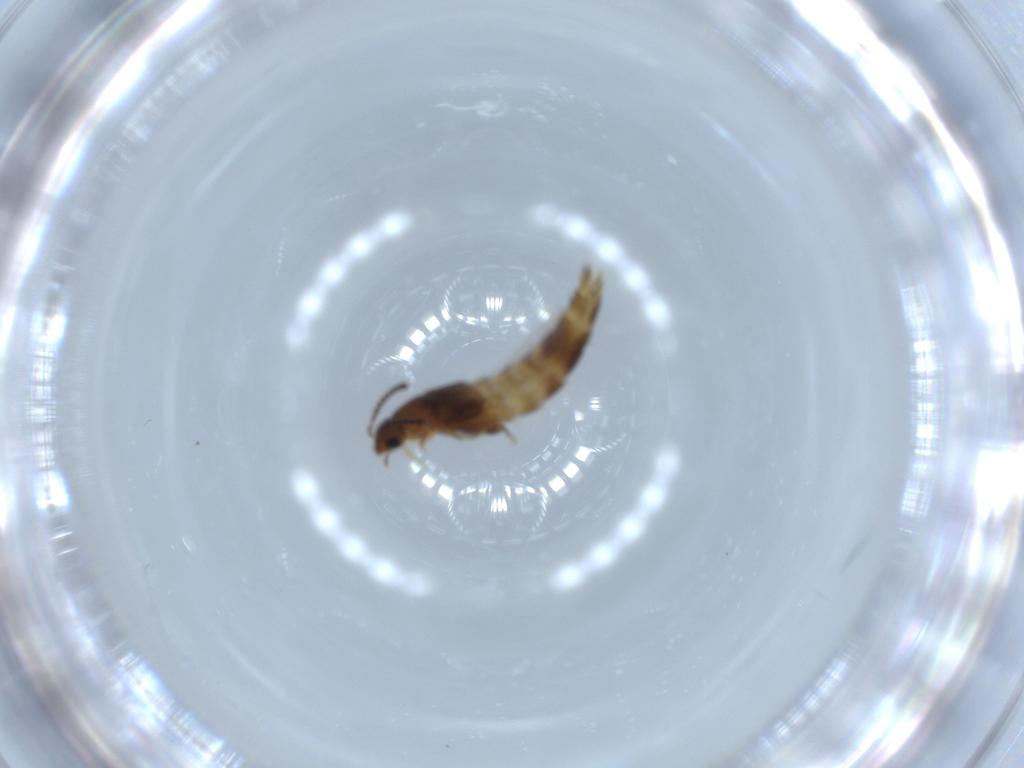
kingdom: Animalia
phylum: Arthropoda
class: Insecta
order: Coleoptera
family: Staphylinidae
